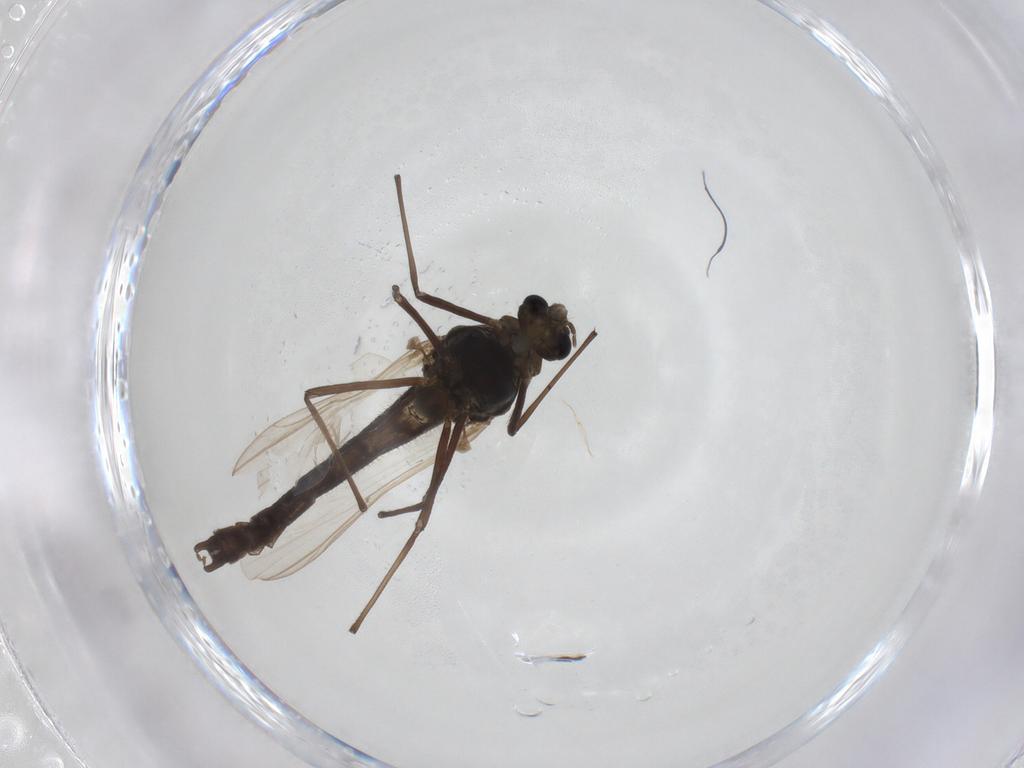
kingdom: Animalia
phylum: Arthropoda
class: Insecta
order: Diptera
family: Chironomidae
